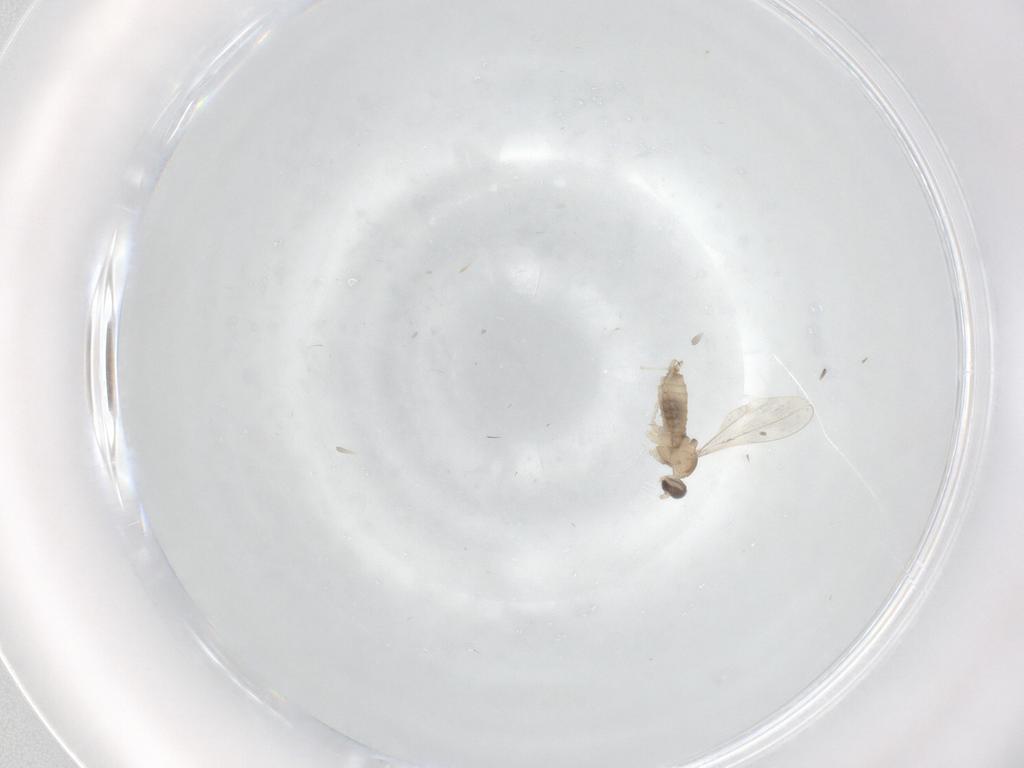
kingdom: Animalia
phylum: Arthropoda
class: Insecta
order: Diptera
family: Cecidomyiidae
